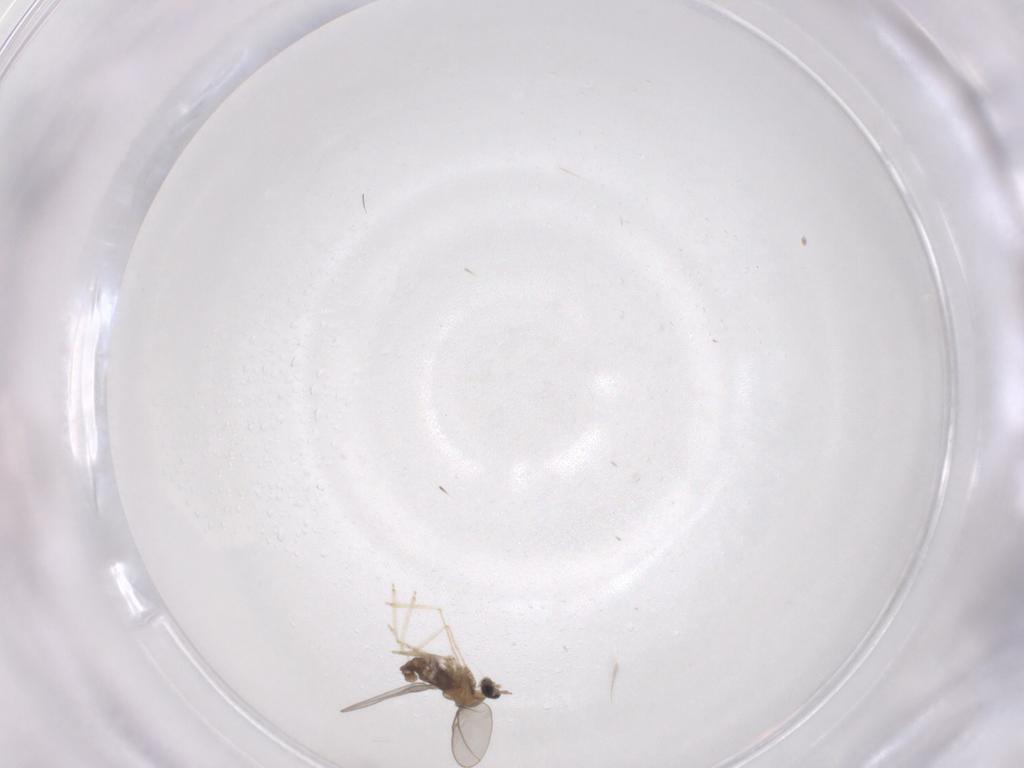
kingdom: Animalia
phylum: Arthropoda
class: Insecta
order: Diptera
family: Cecidomyiidae
